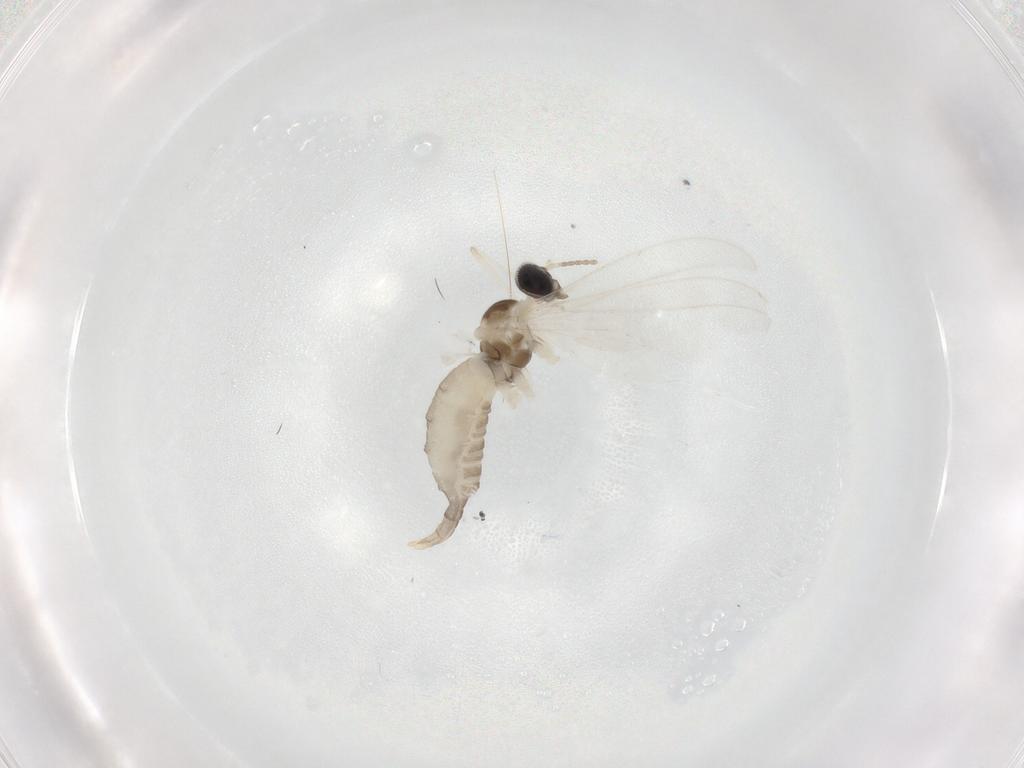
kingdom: Animalia
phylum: Arthropoda
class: Insecta
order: Diptera
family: Cecidomyiidae
